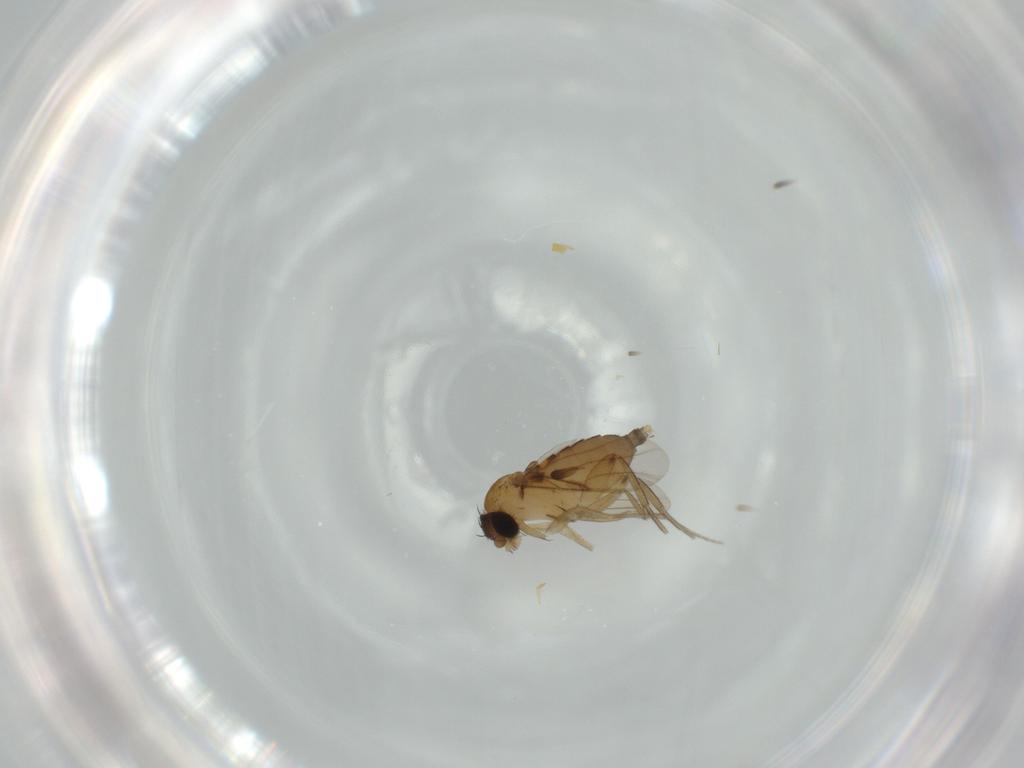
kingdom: Animalia
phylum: Arthropoda
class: Insecta
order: Diptera
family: Phoridae
